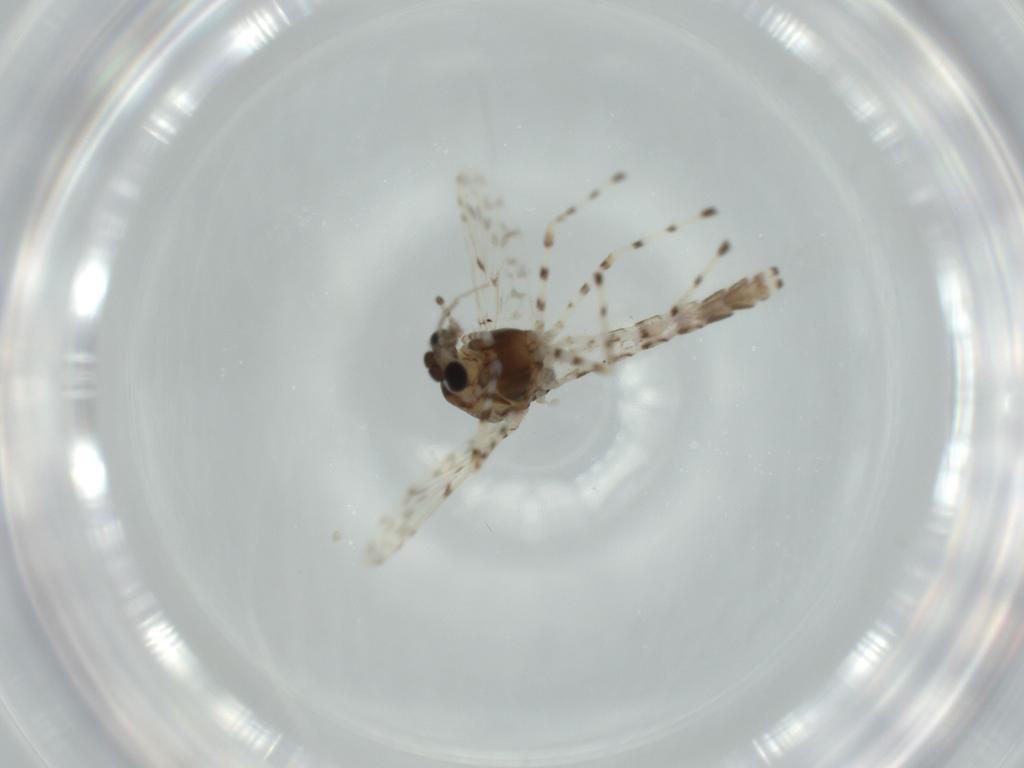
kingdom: Animalia
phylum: Arthropoda
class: Insecta
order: Diptera
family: Chironomidae
